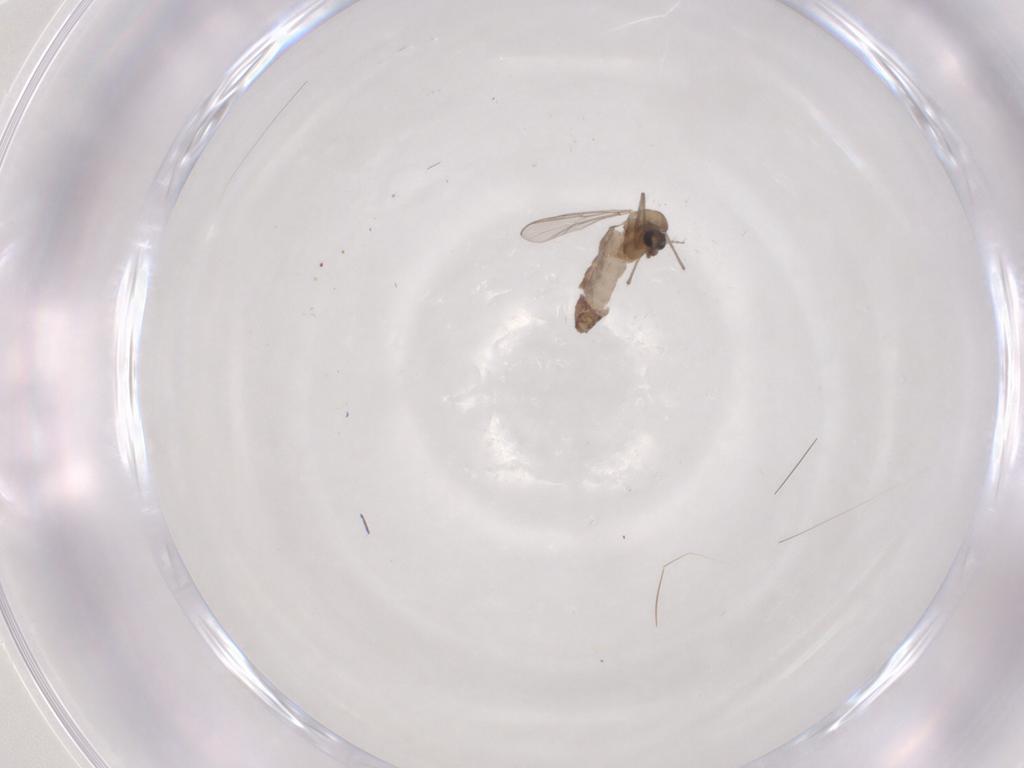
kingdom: Animalia
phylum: Arthropoda
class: Insecta
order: Diptera
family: Chironomidae
